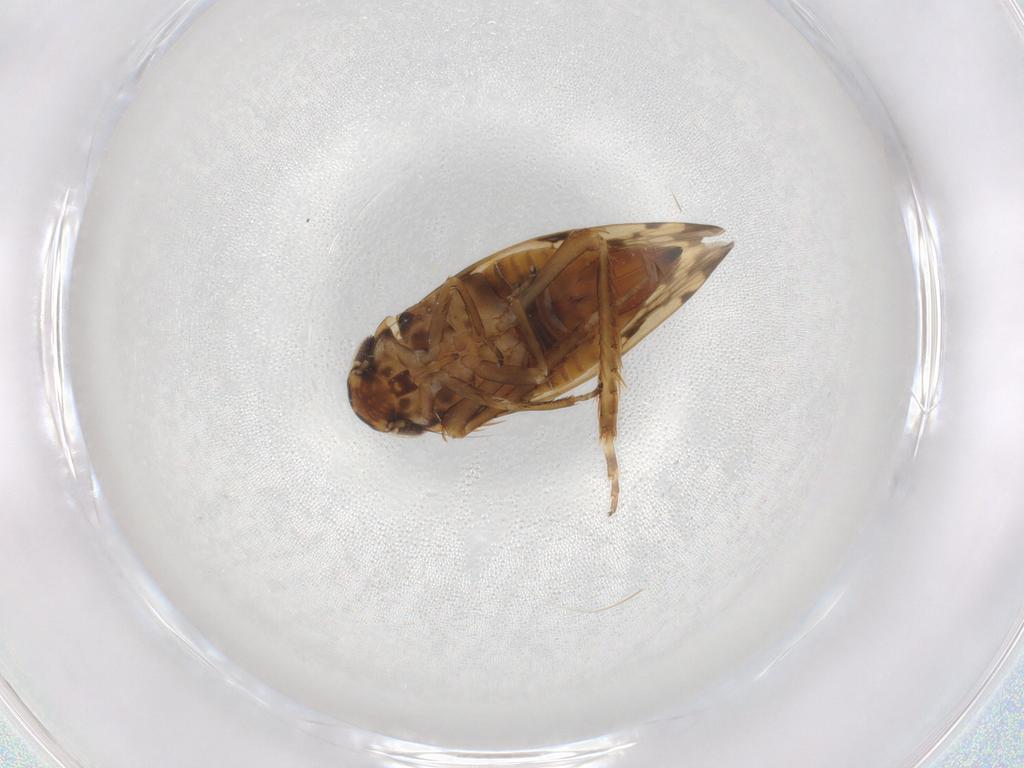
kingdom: Animalia
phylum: Arthropoda
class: Insecta
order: Hemiptera
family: Cicadellidae
